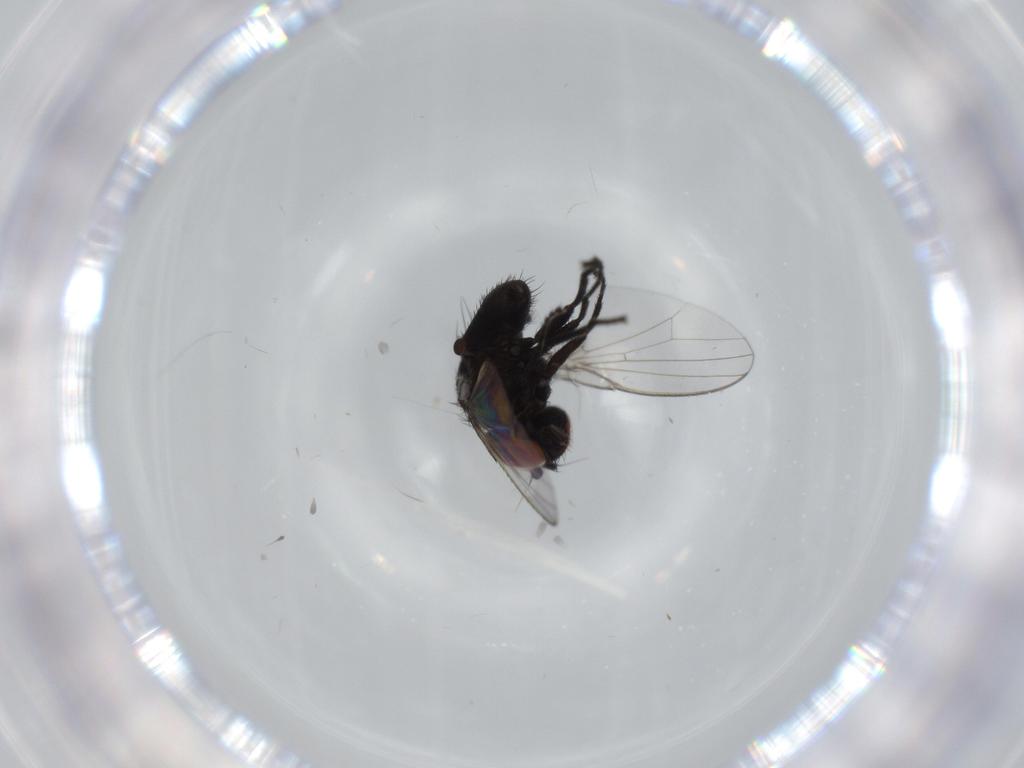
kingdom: Animalia
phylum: Arthropoda
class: Insecta
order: Diptera
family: Milichiidae
